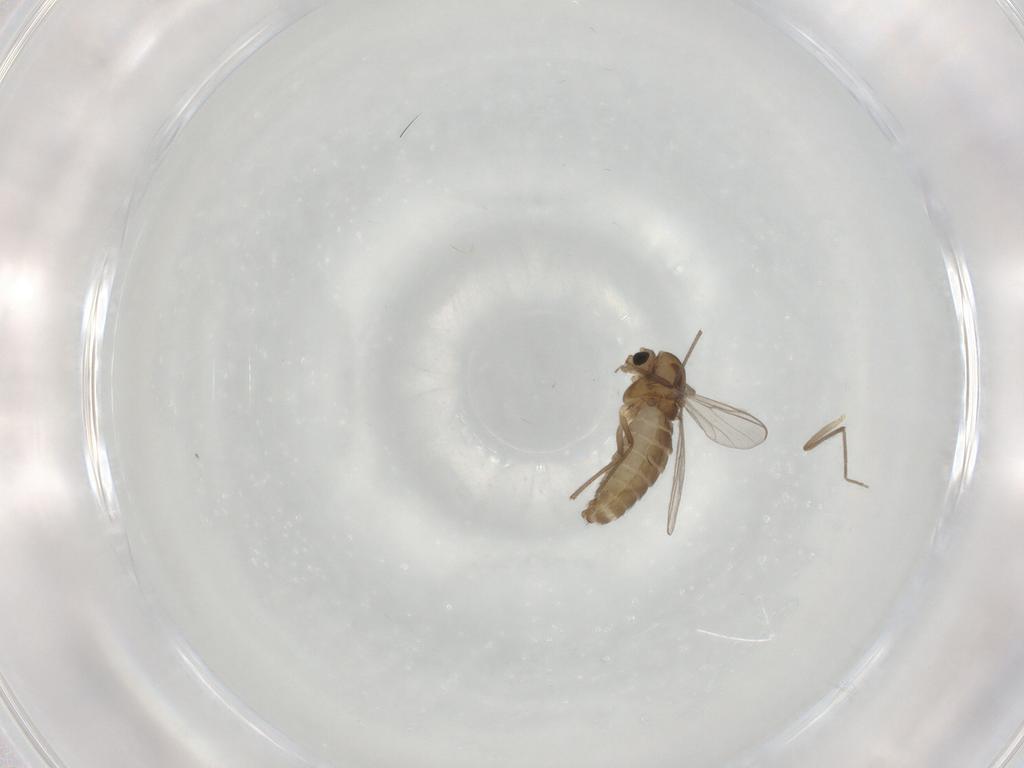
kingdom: Animalia
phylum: Arthropoda
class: Insecta
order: Diptera
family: Chironomidae
